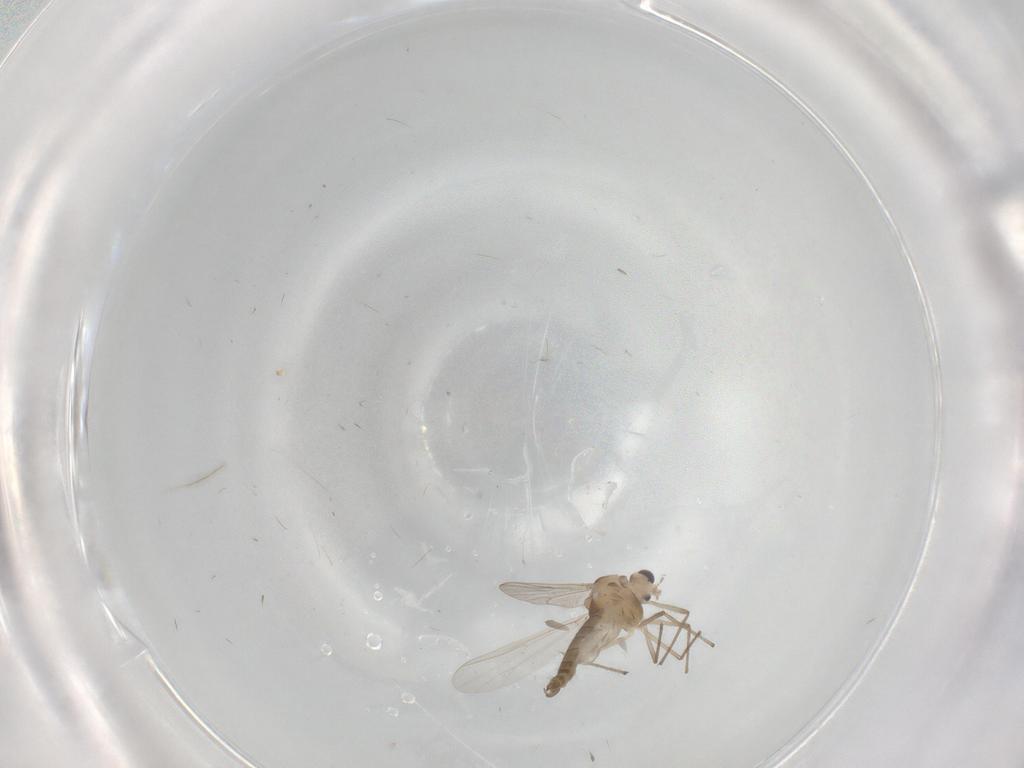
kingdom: Animalia
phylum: Arthropoda
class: Insecta
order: Diptera
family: Chironomidae
